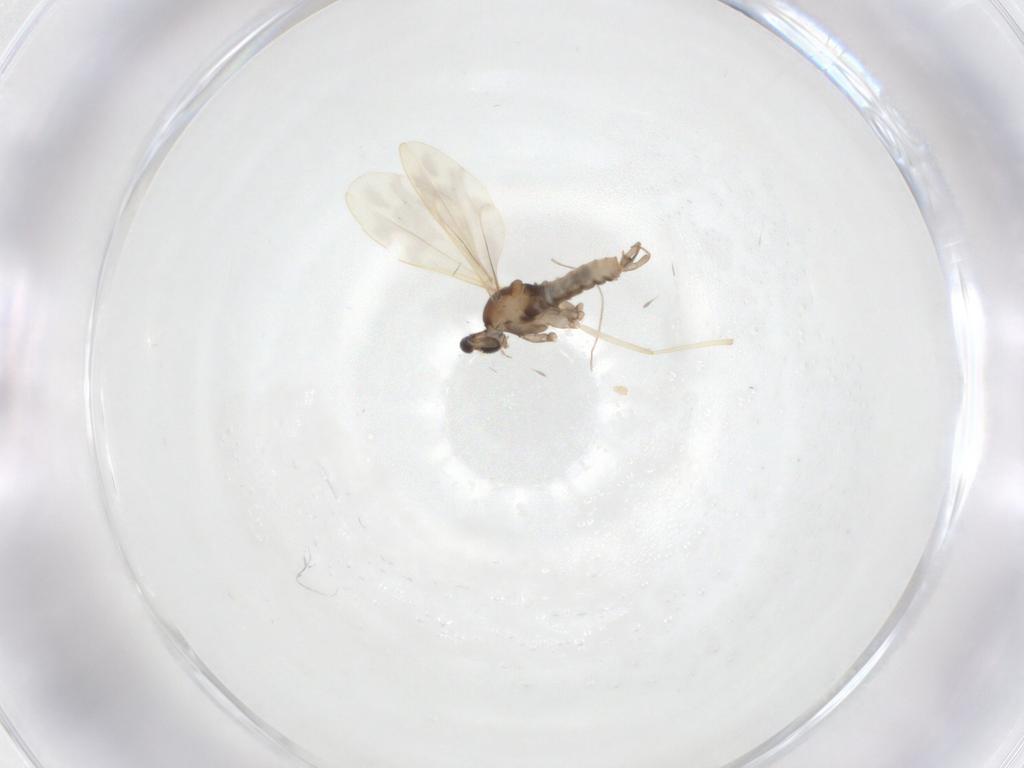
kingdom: Animalia
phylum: Arthropoda
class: Insecta
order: Diptera
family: Cecidomyiidae
